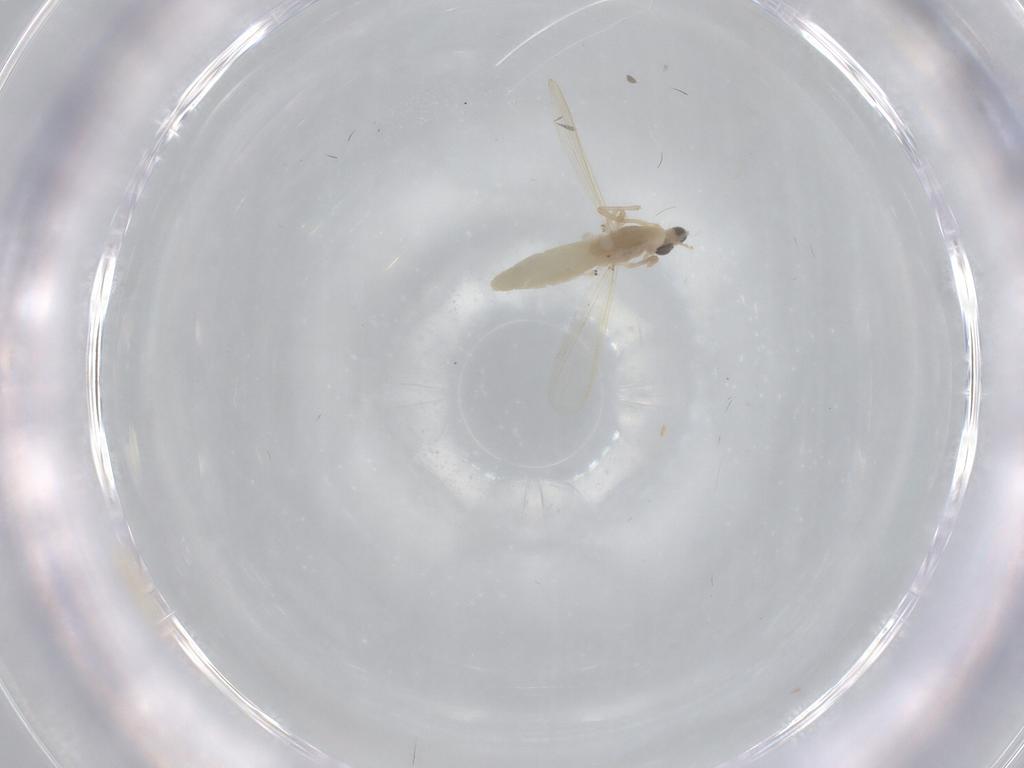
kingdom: Animalia
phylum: Arthropoda
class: Insecta
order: Diptera
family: Chironomidae
